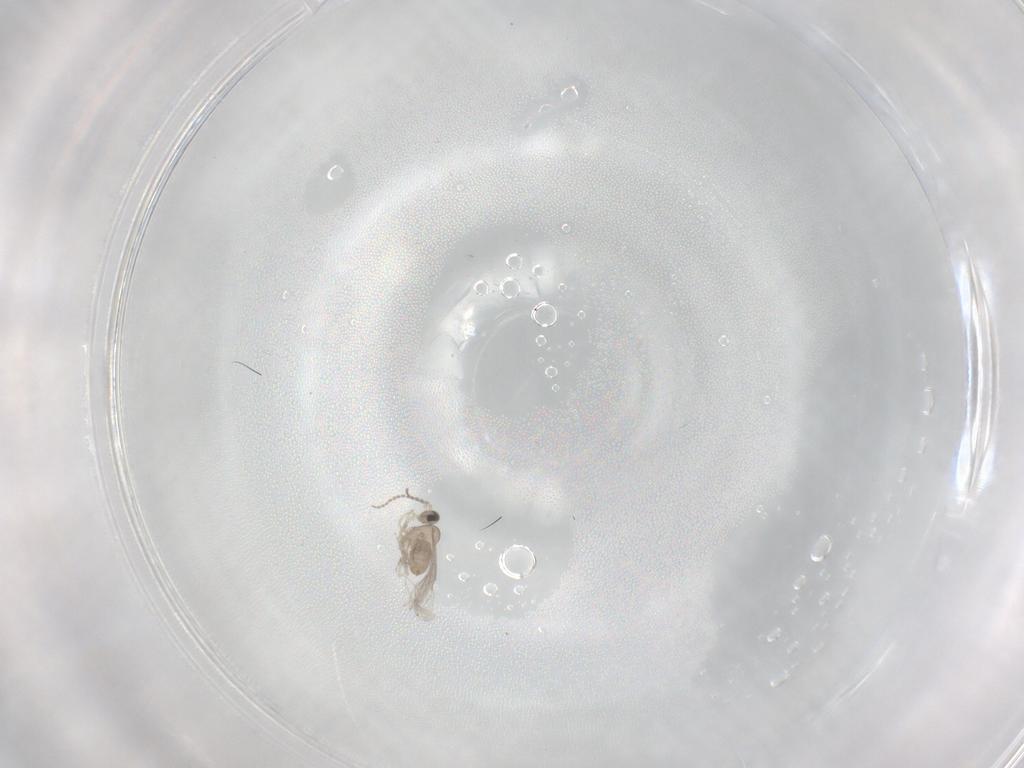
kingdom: Animalia
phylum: Arthropoda
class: Insecta
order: Diptera
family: Cecidomyiidae
